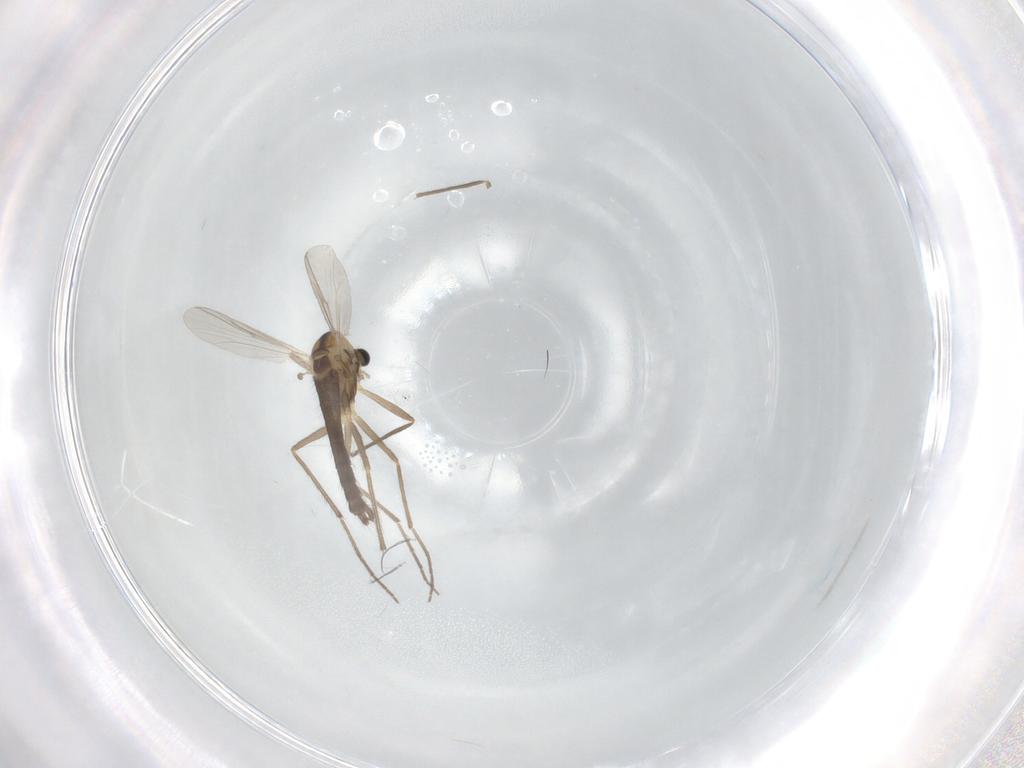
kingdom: Animalia
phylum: Arthropoda
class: Insecta
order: Diptera
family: Chironomidae
